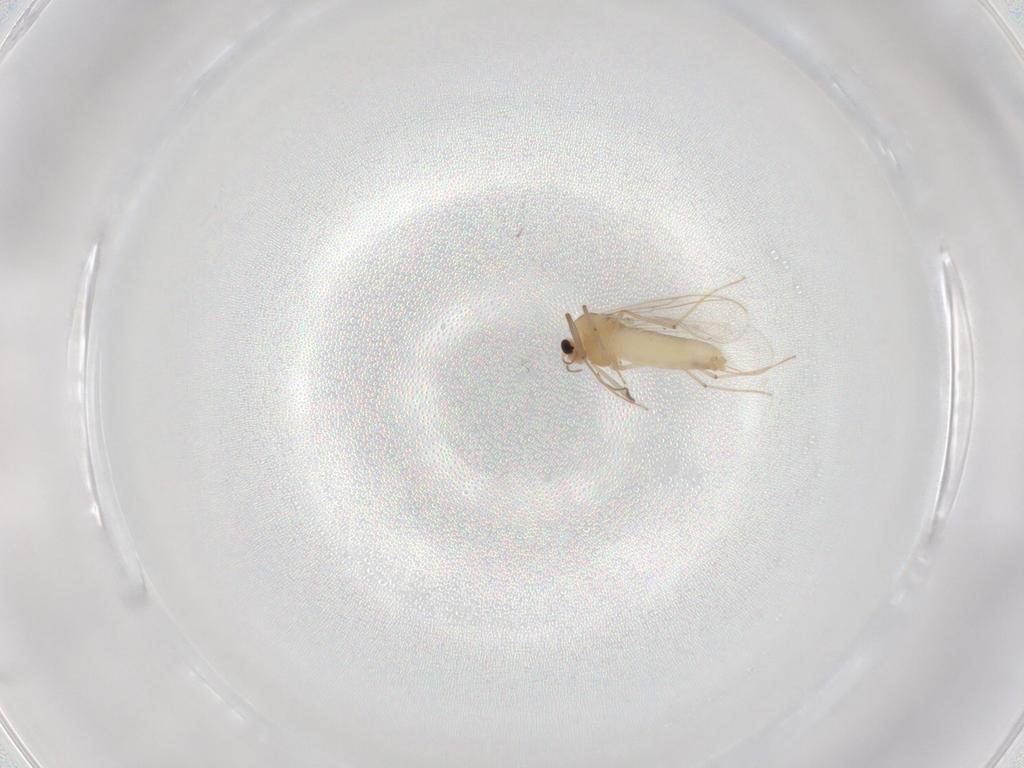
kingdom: Animalia
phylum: Arthropoda
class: Insecta
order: Diptera
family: Chironomidae
